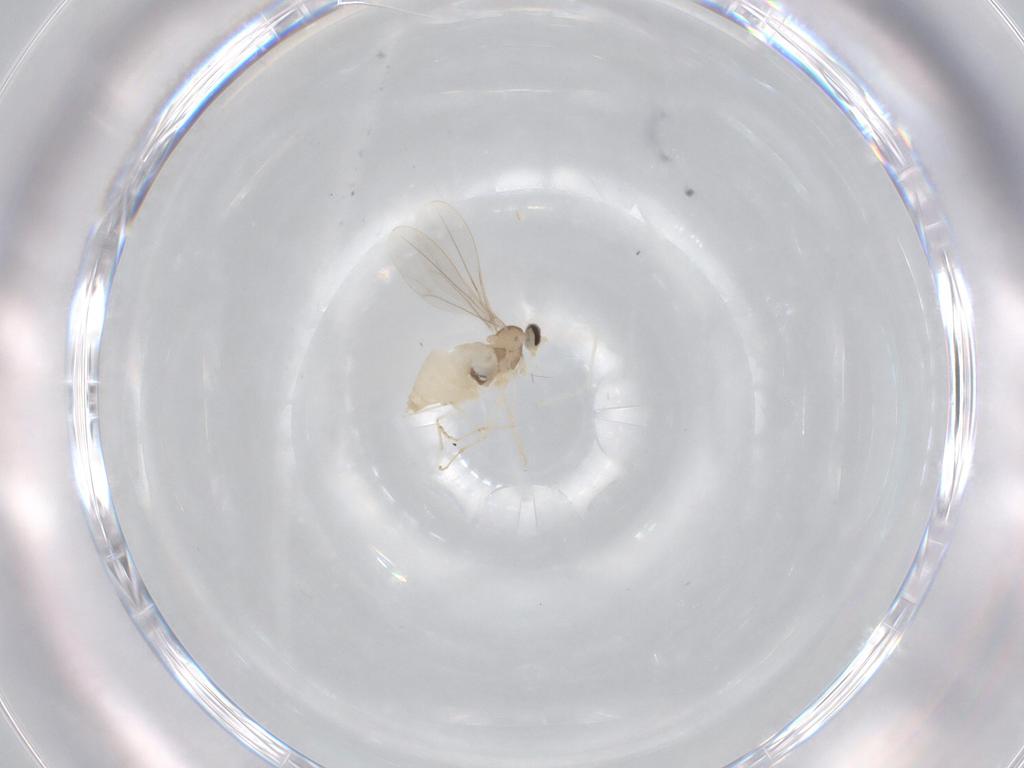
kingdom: Animalia
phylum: Arthropoda
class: Insecta
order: Diptera
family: Cecidomyiidae
